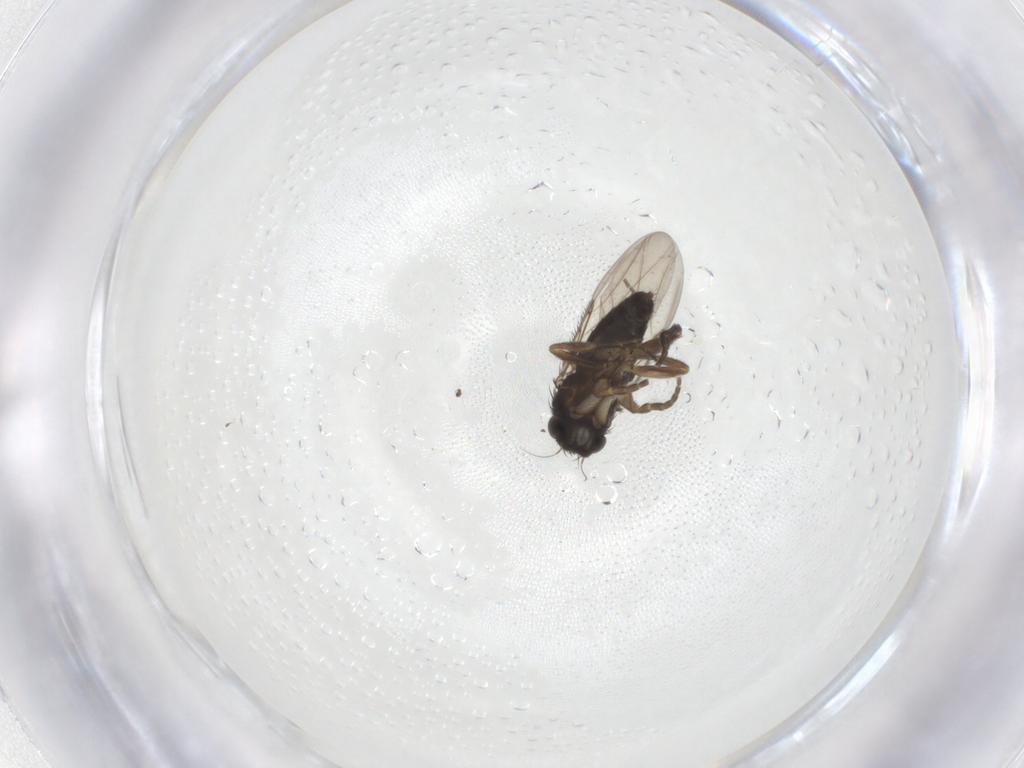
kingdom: Animalia
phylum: Arthropoda
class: Insecta
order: Diptera
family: Phoridae
